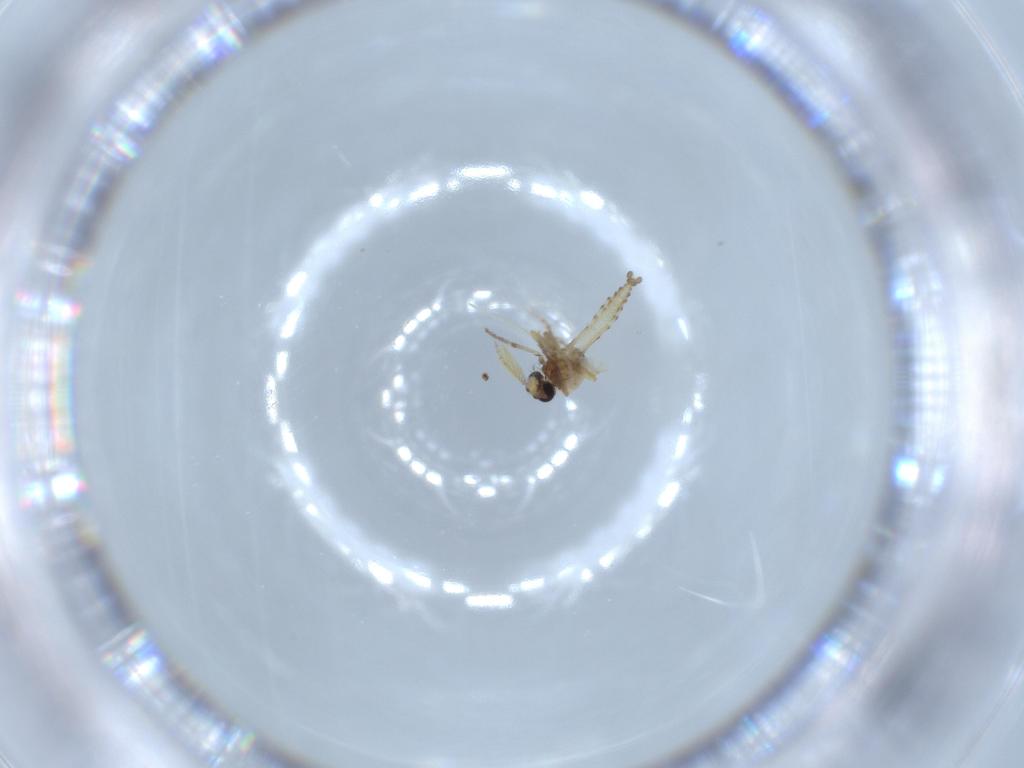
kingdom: Animalia
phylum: Arthropoda
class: Insecta
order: Diptera
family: Sciaridae
